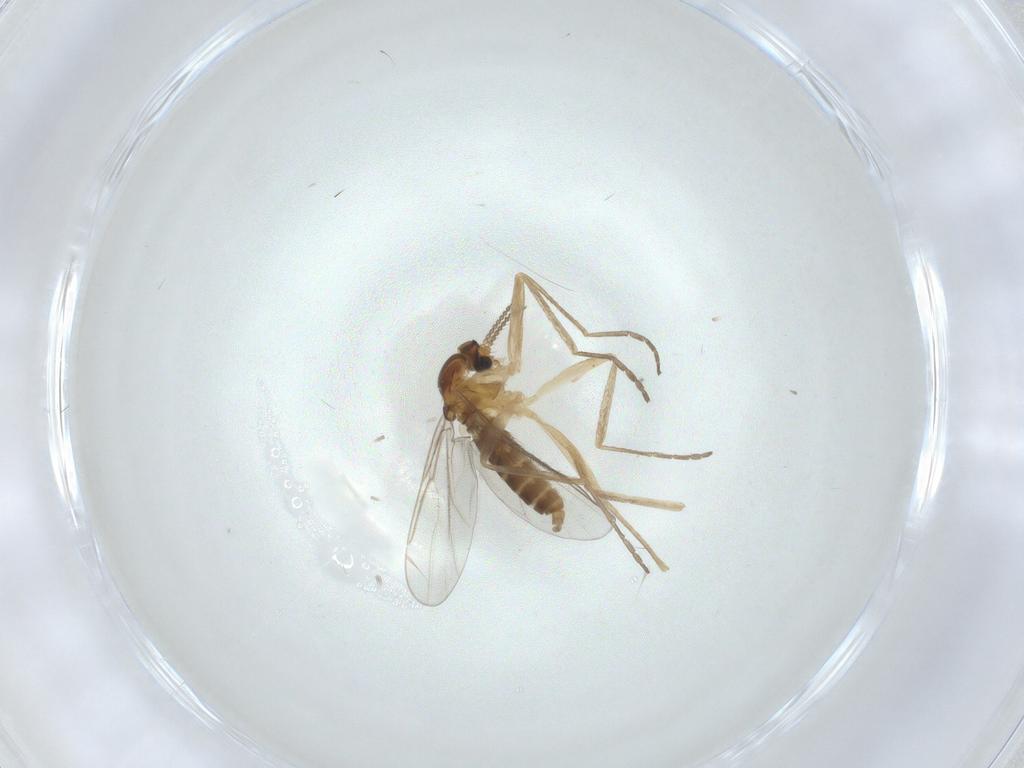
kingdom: Animalia
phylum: Arthropoda
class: Insecta
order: Diptera
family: Cecidomyiidae
